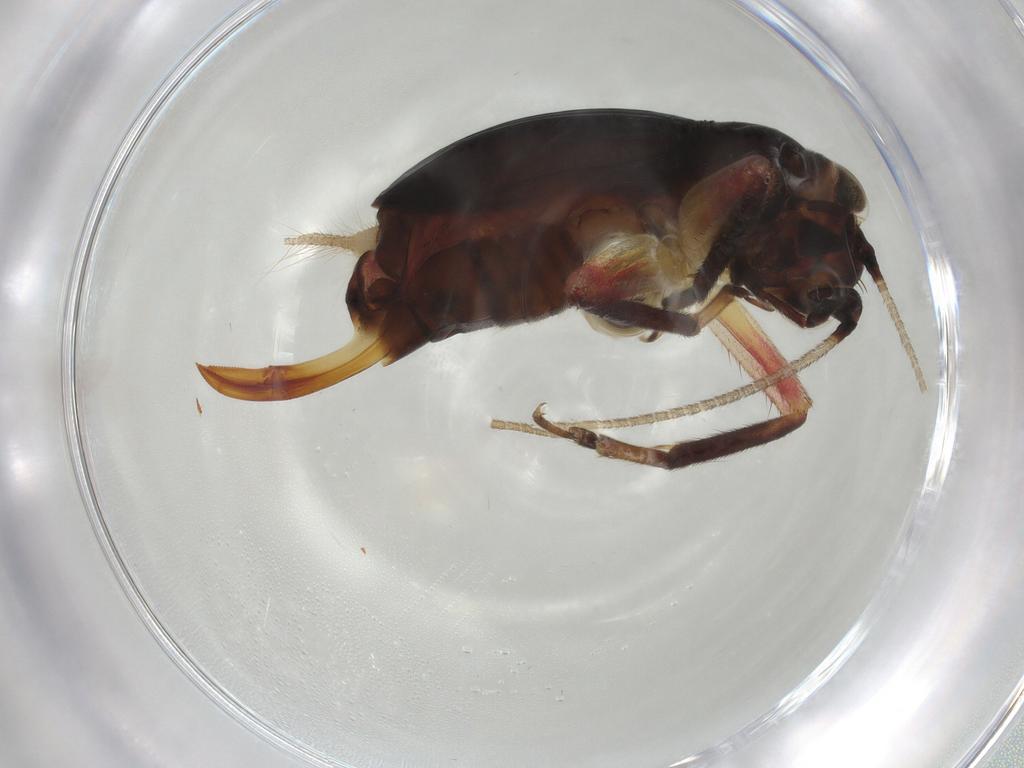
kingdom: Animalia
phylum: Arthropoda
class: Insecta
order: Orthoptera
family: Trigonidiidae
